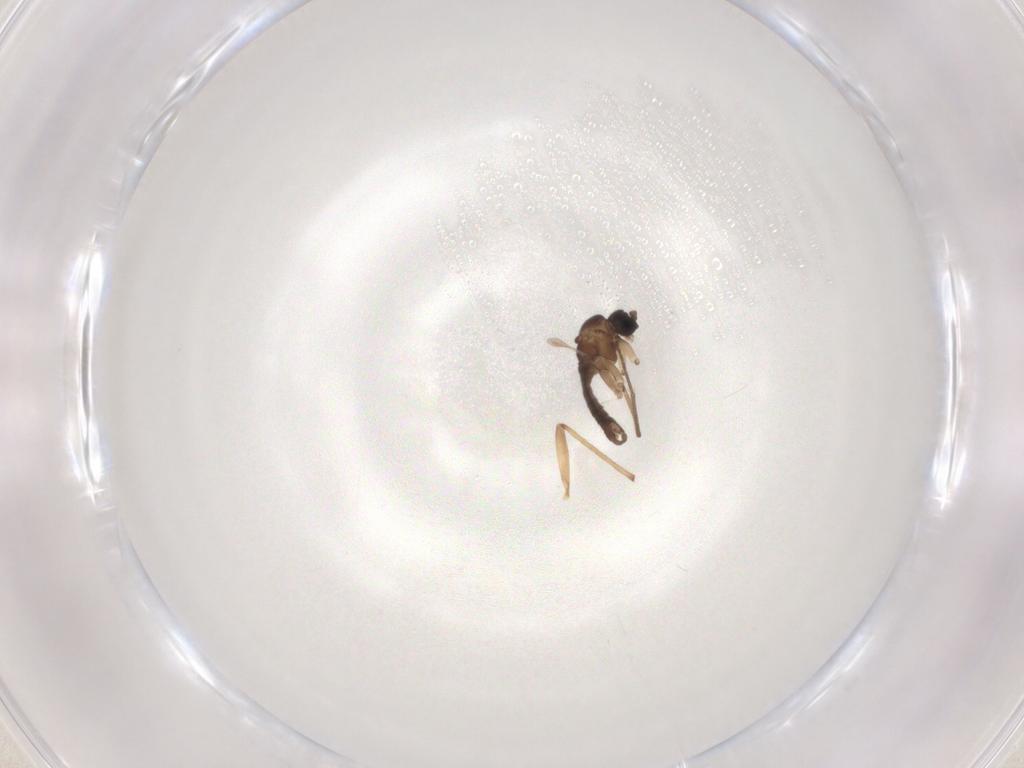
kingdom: Animalia
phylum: Arthropoda
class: Insecta
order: Diptera
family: Sciaridae
